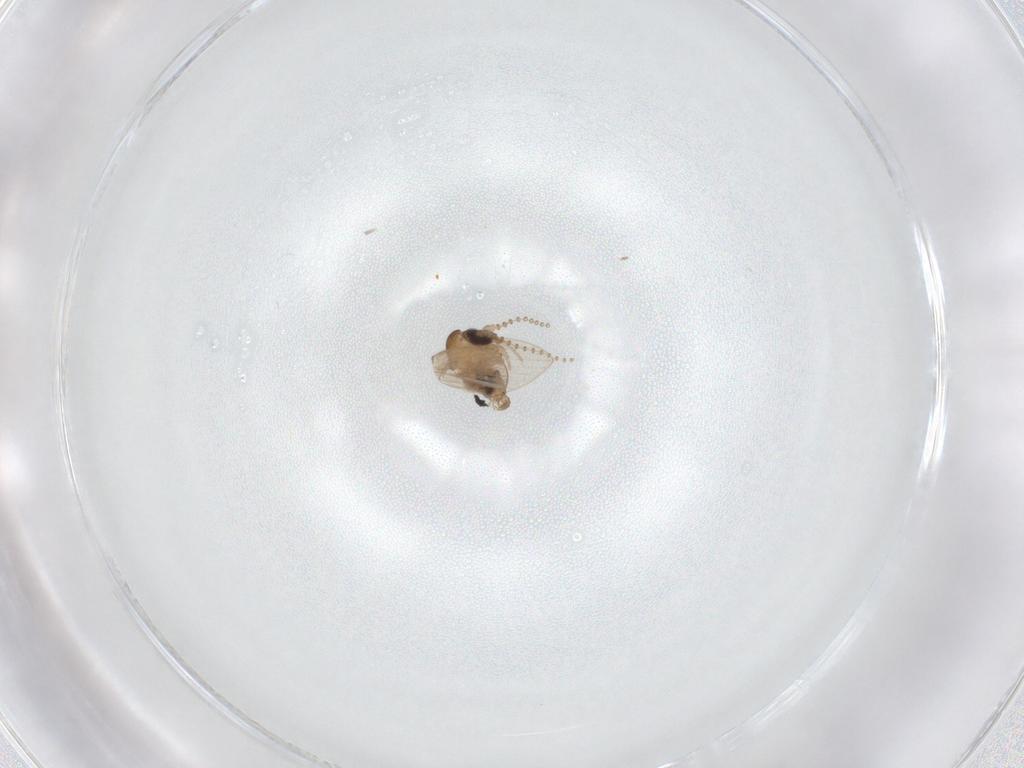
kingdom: Animalia
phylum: Arthropoda
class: Insecta
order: Diptera
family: Psychodidae
